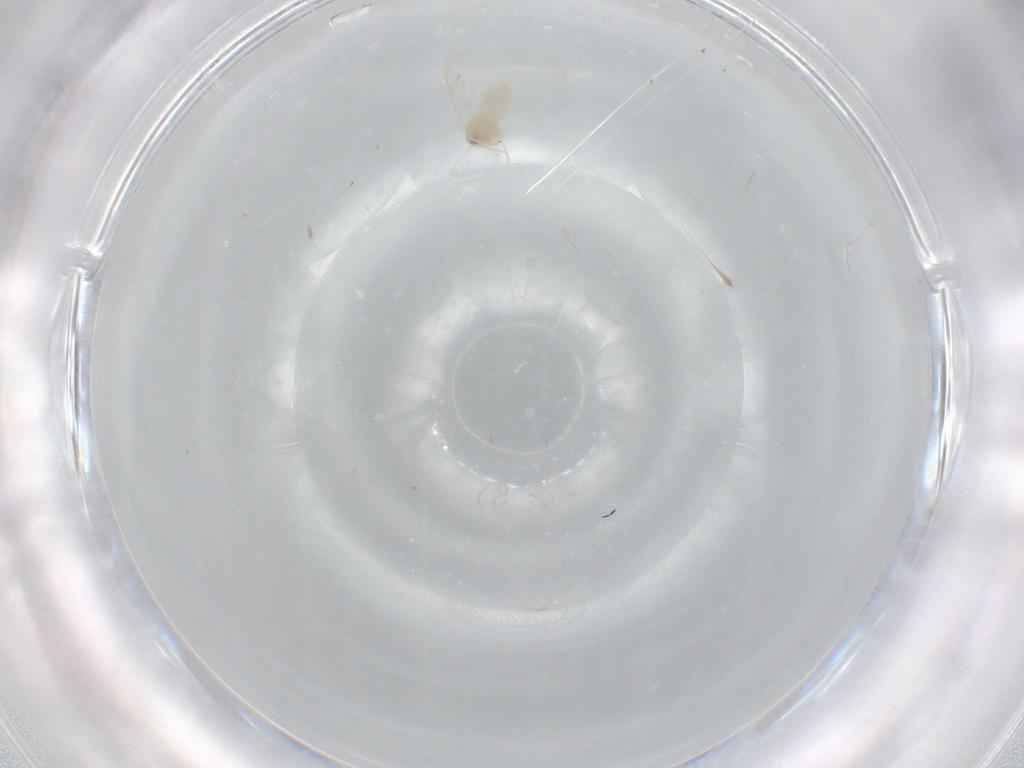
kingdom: Animalia
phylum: Arthropoda
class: Insecta
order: Hemiptera
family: Aleyrodidae
